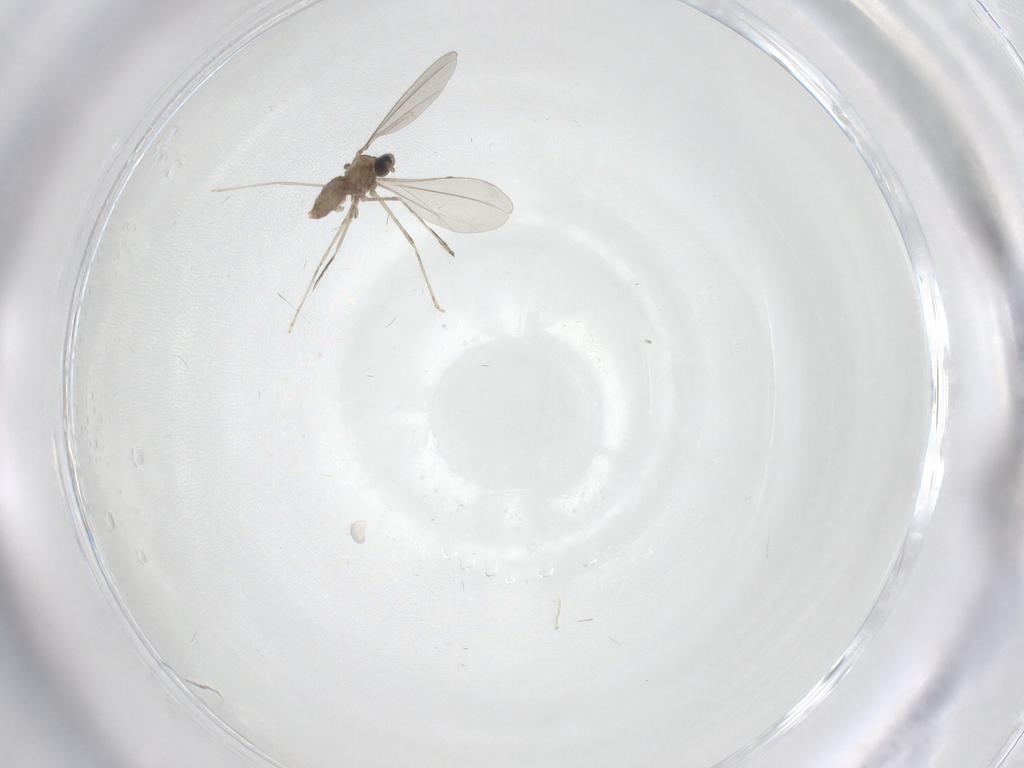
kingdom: Animalia
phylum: Arthropoda
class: Insecta
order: Diptera
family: Cecidomyiidae
